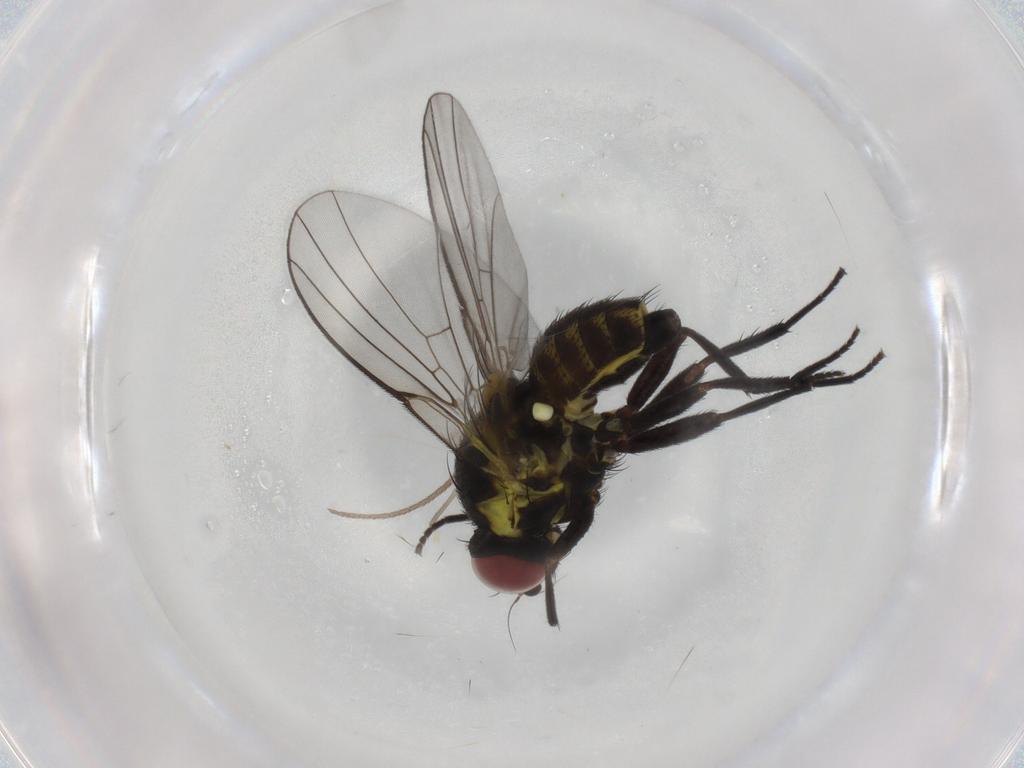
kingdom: Animalia
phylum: Arthropoda
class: Insecta
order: Diptera
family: Agromyzidae
